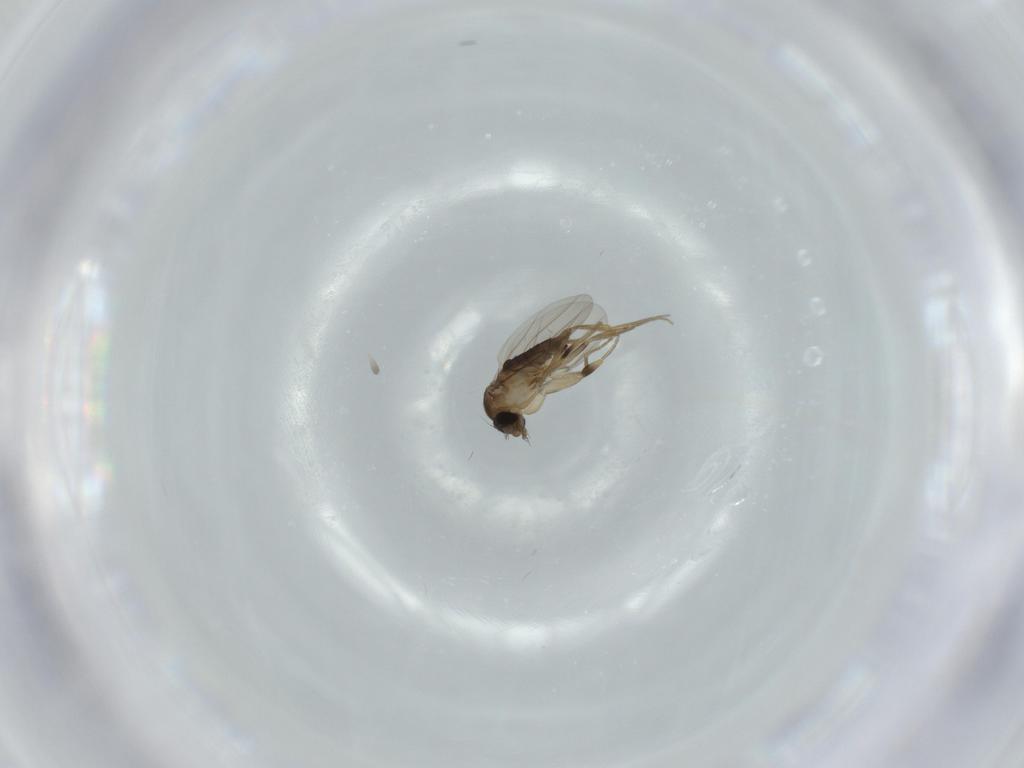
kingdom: Animalia
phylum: Arthropoda
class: Insecta
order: Diptera
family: Phoridae
